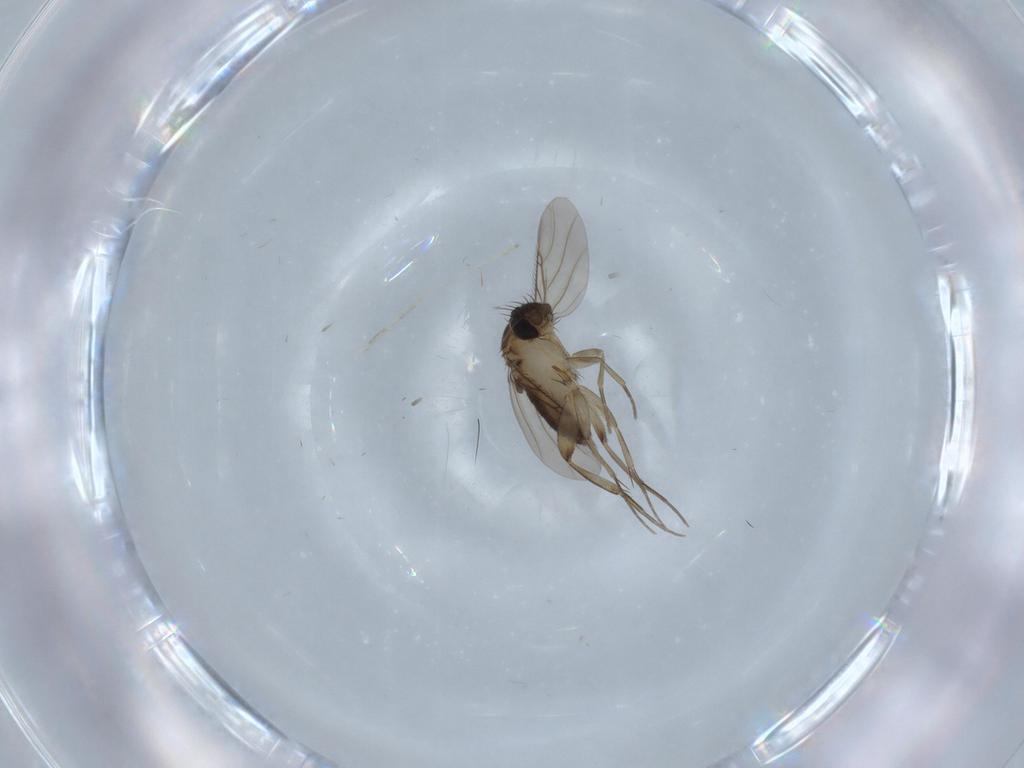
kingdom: Animalia
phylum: Arthropoda
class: Insecta
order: Diptera
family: Phoridae
